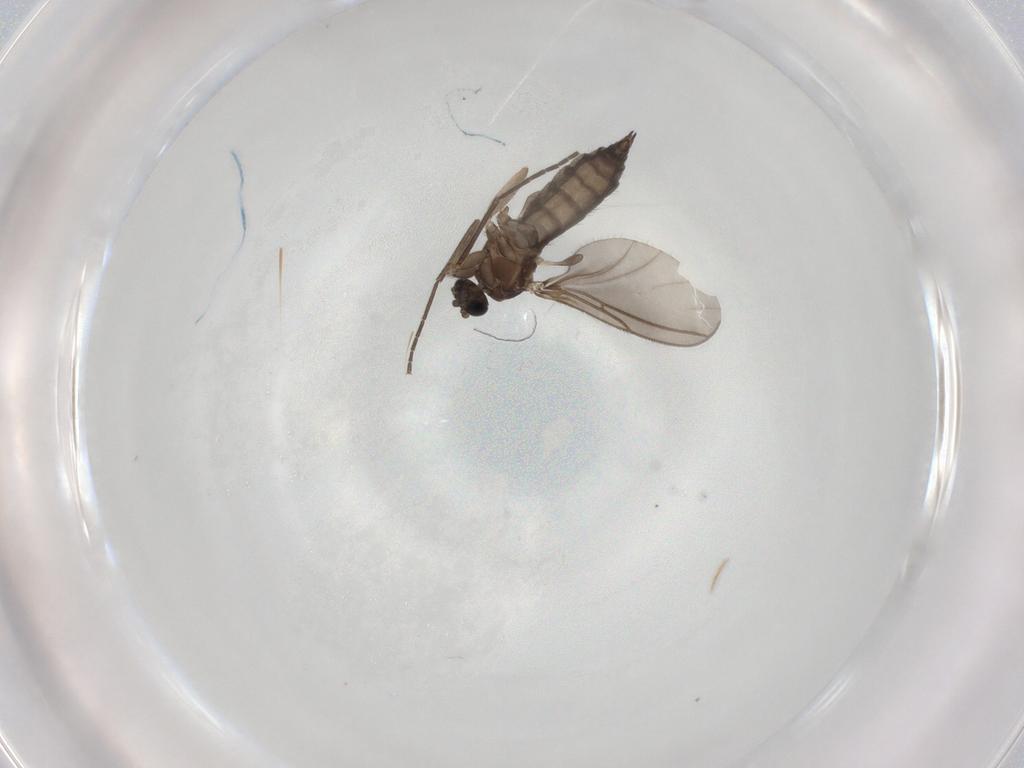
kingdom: Animalia
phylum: Arthropoda
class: Insecta
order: Diptera
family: Sciaridae
